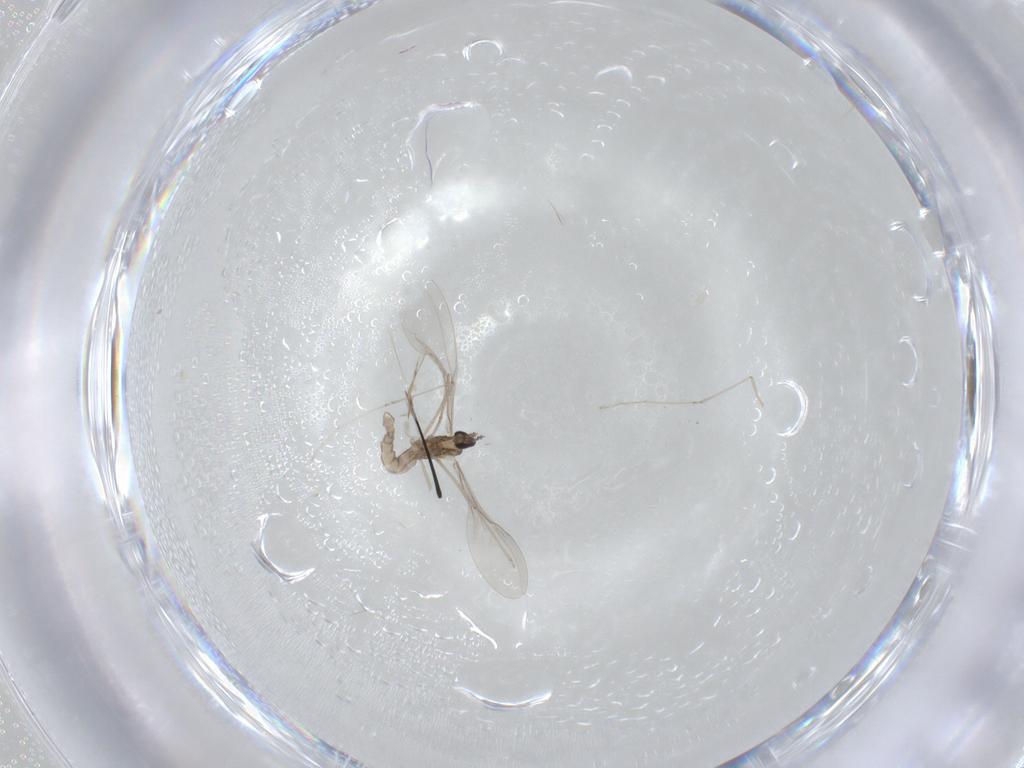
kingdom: Animalia
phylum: Arthropoda
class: Insecta
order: Diptera
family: Cecidomyiidae
